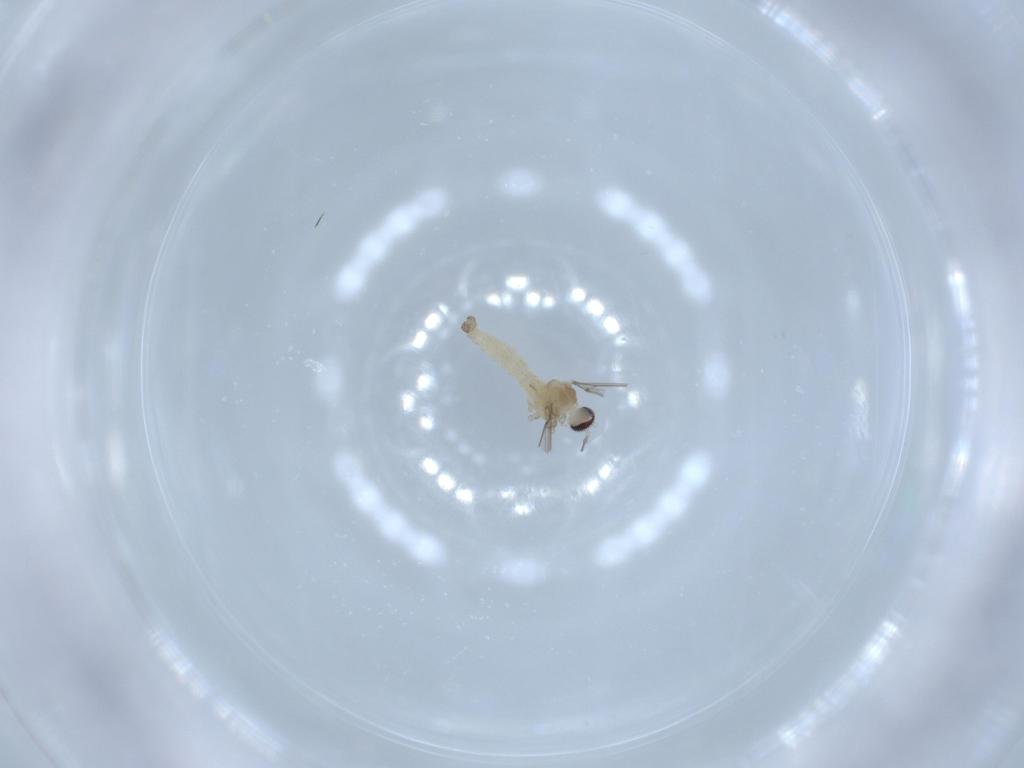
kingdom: Animalia
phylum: Arthropoda
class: Insecta
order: Diptera
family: Cecidomyiidae
